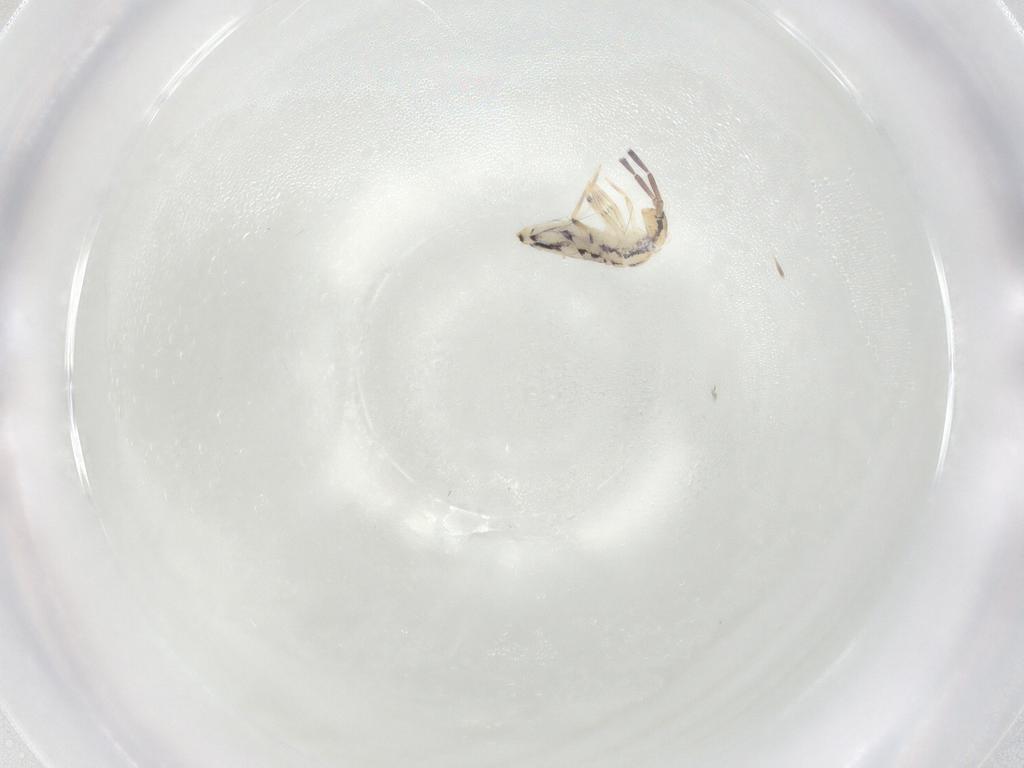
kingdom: Animalia
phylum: Arthropoda
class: Collembola
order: Entomobryomorpha
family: Entomobryidae
